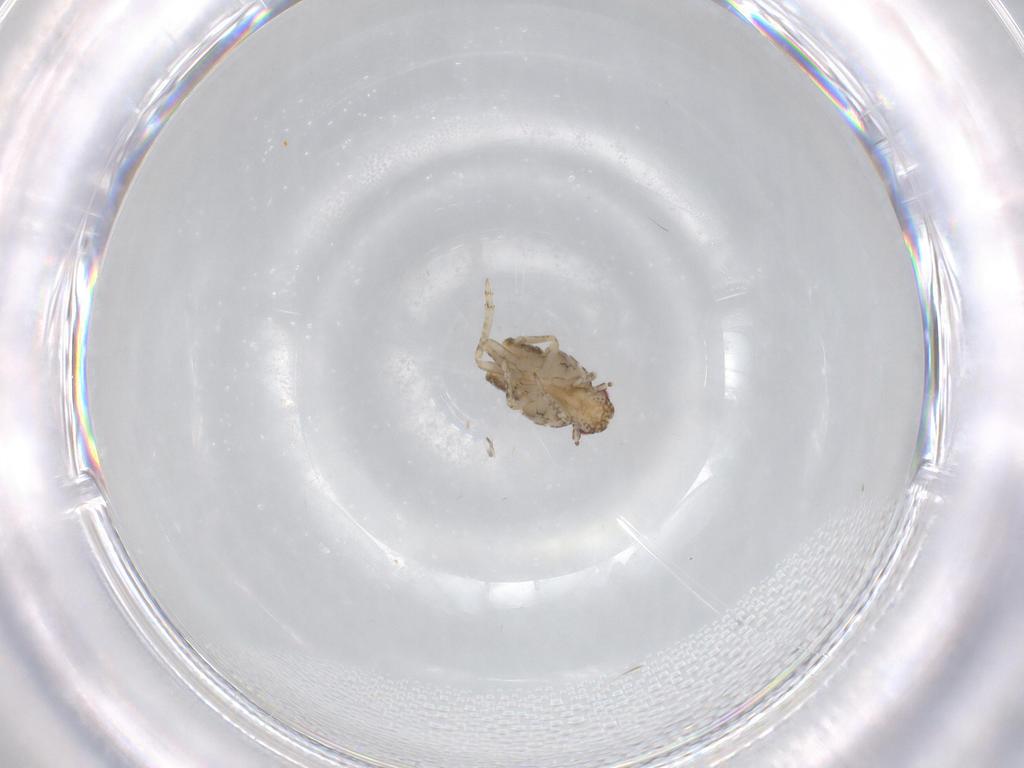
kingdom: Animalia
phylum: Arthropoda
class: Insecta
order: Hemiptera
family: Flatidae
